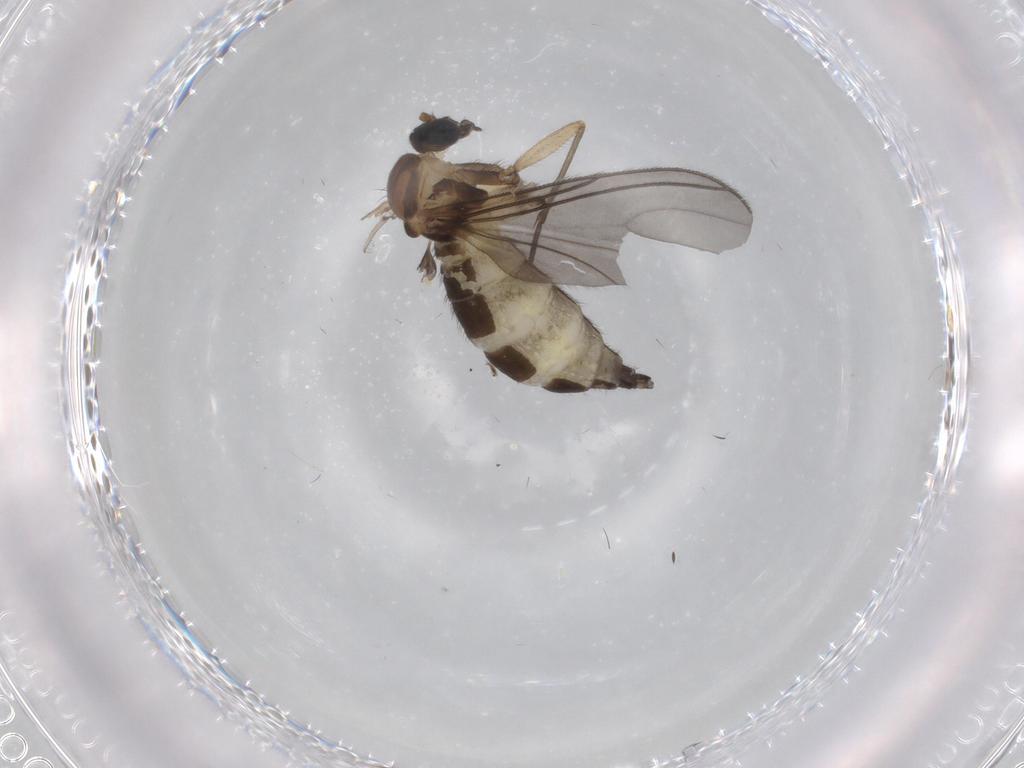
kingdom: Animalia
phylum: Arthropoda
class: Insecta
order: Diptera
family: Sciaridae
